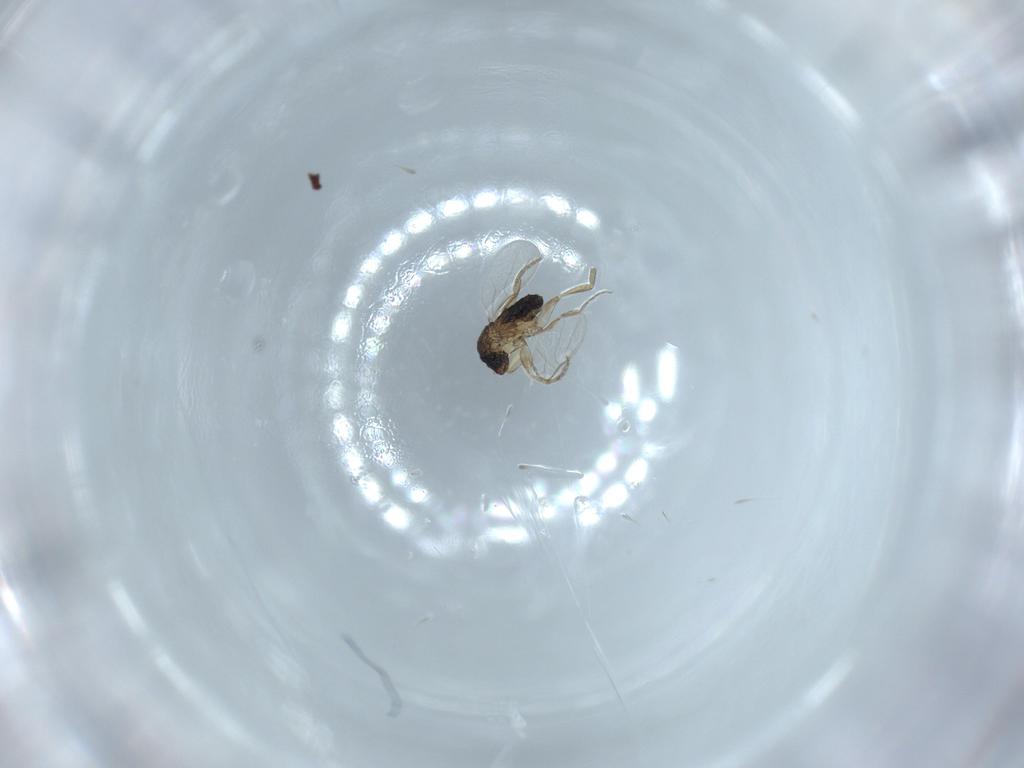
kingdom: Animalia
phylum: Arthropoda
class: Insecta
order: Diptera
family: Phoridae
